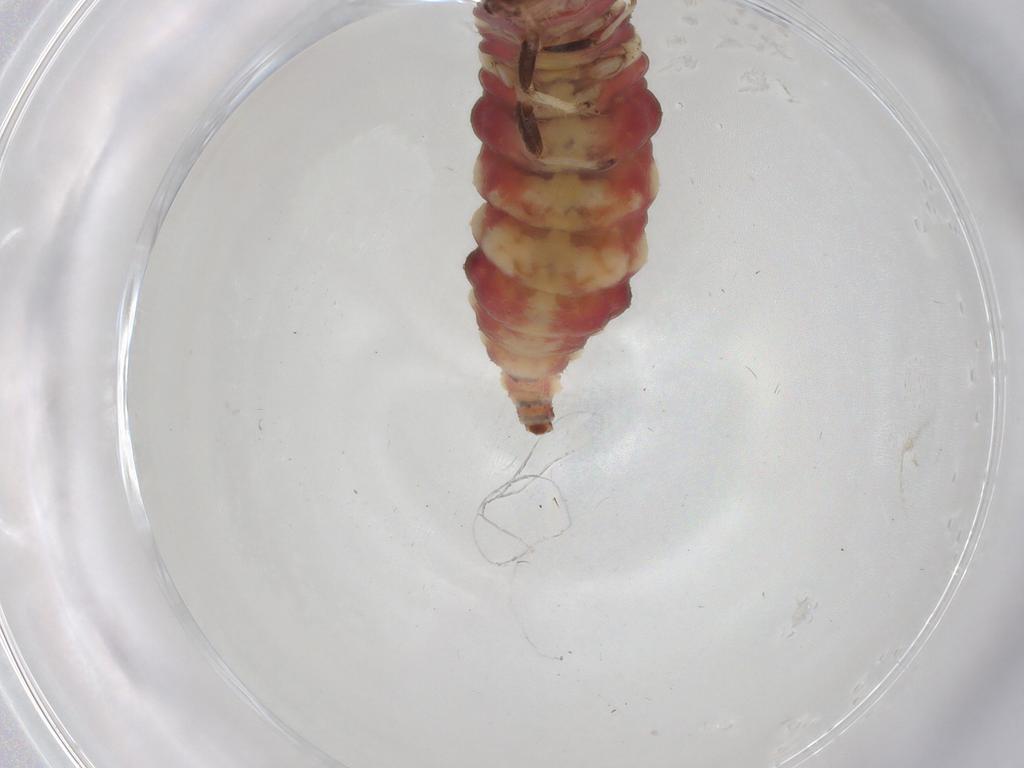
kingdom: Animalia
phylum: Arthropoda
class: Insecta
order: Neuroptera
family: Chrysopidae
